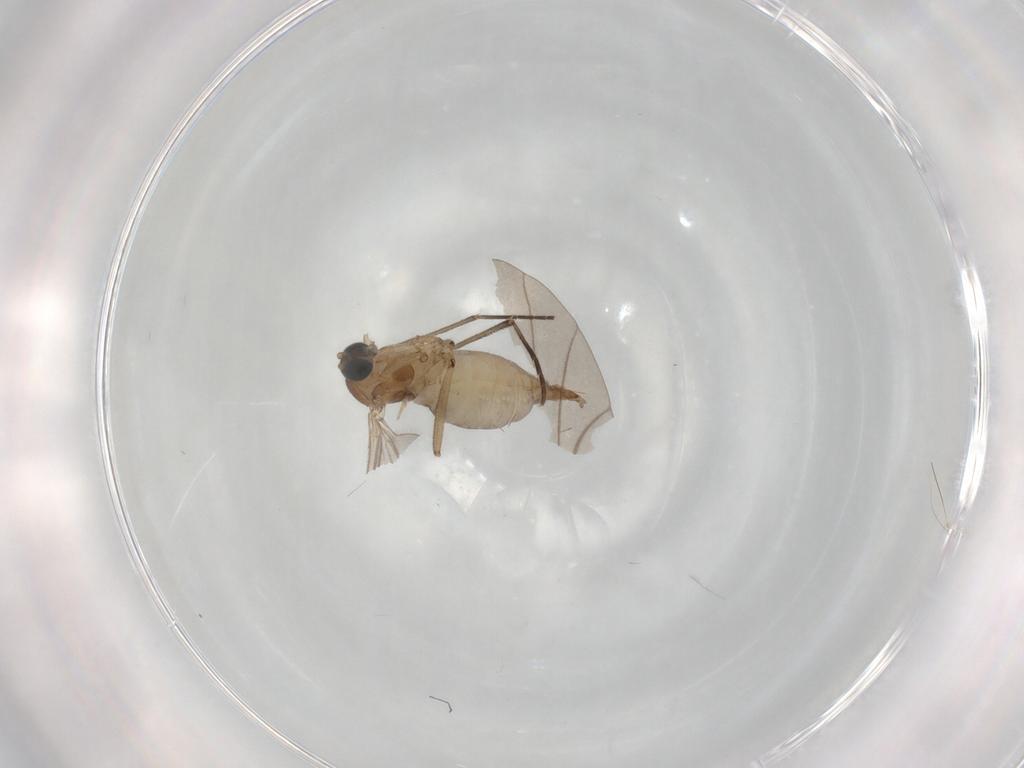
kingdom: Animalia
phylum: Arthropoda
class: Insecta
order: Diptera
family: Sciaridae
